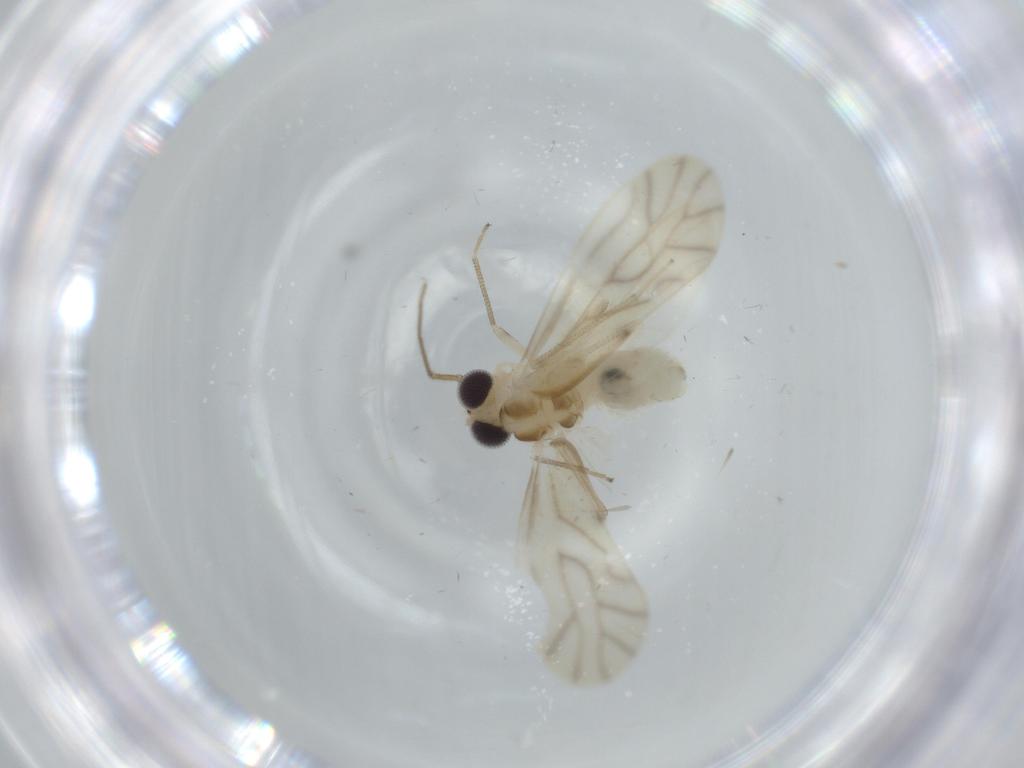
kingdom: Animalia
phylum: Arthropoda
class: Insecta
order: Psocodea
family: Caeciliusidae
